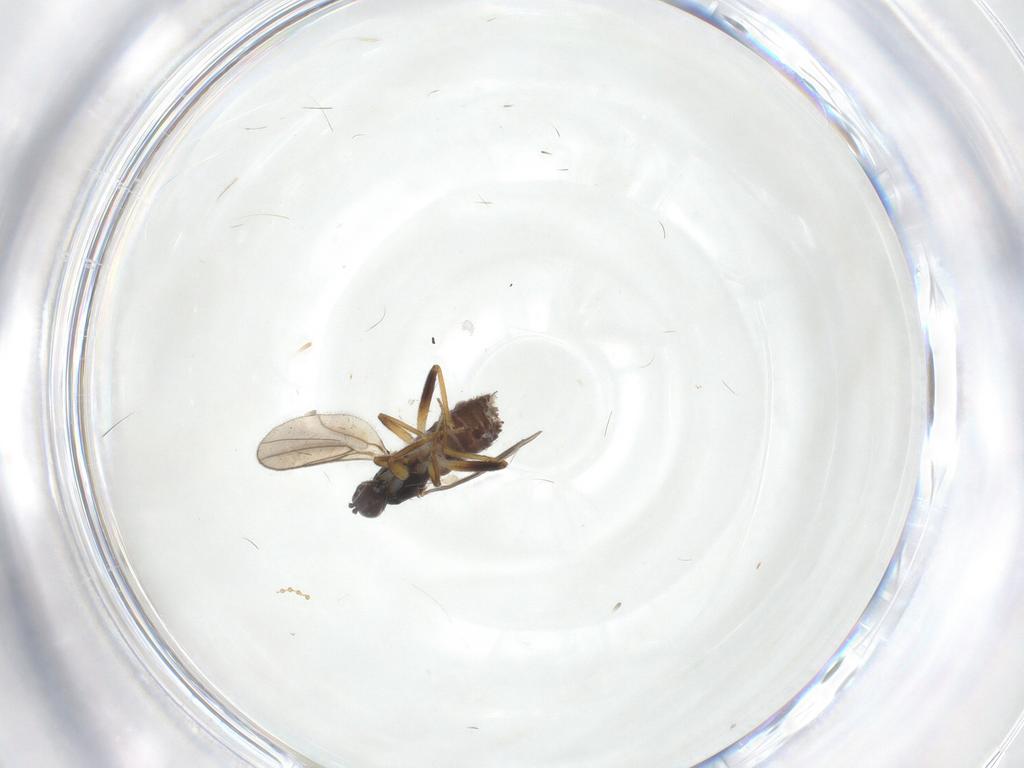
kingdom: Animalia
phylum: Arthropoda
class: Insecta
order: Diptera
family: Hybotidae
